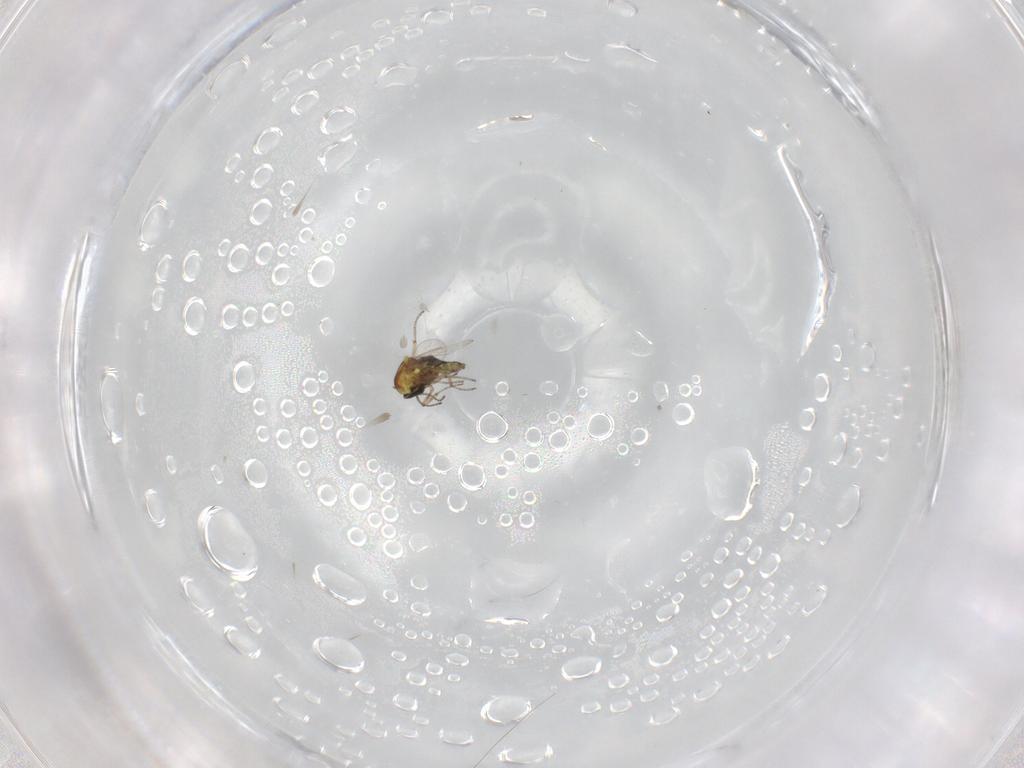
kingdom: Animalia
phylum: Arthropoda
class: Insecta
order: Diptera
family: Ceratopogonidae
